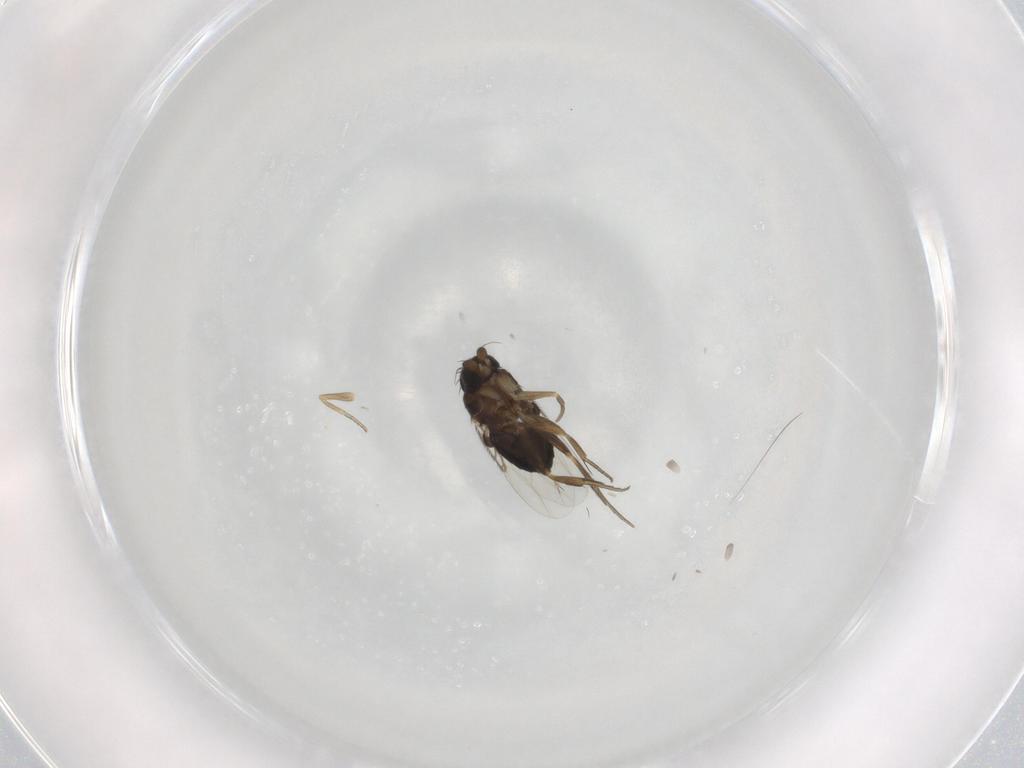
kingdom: Animalia
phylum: Arthropoda
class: Insecta
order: Diptera
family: Phoridae
